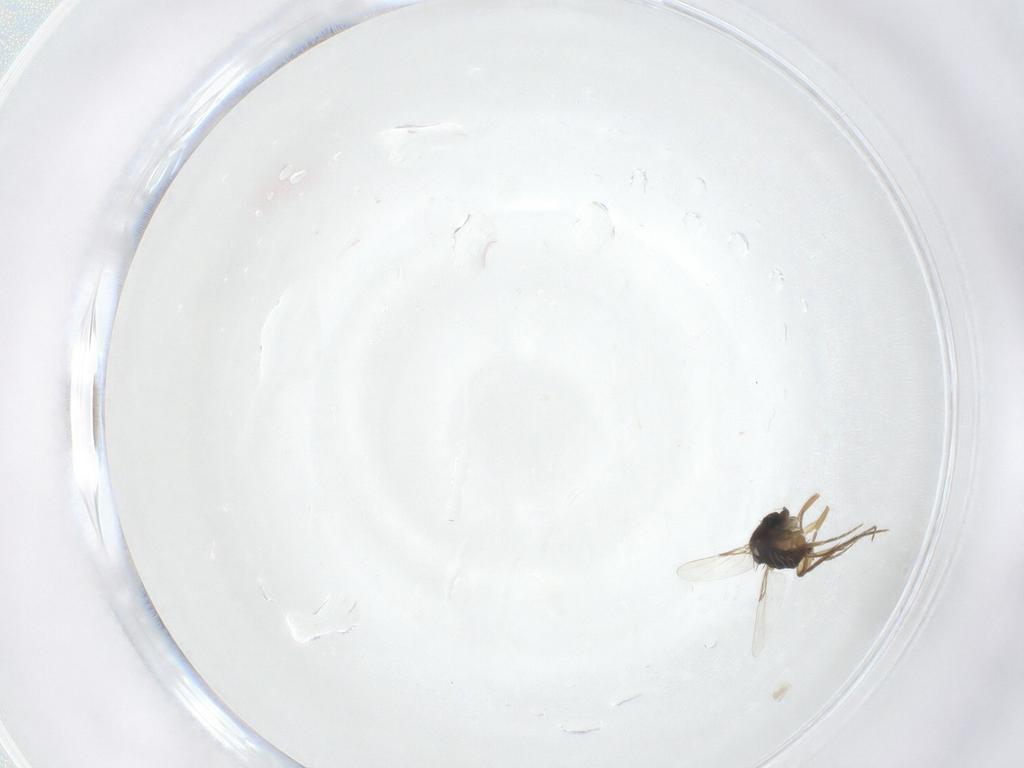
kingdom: Animalia
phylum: Arthropoda
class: Insecta
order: Diptera
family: Phoridae
